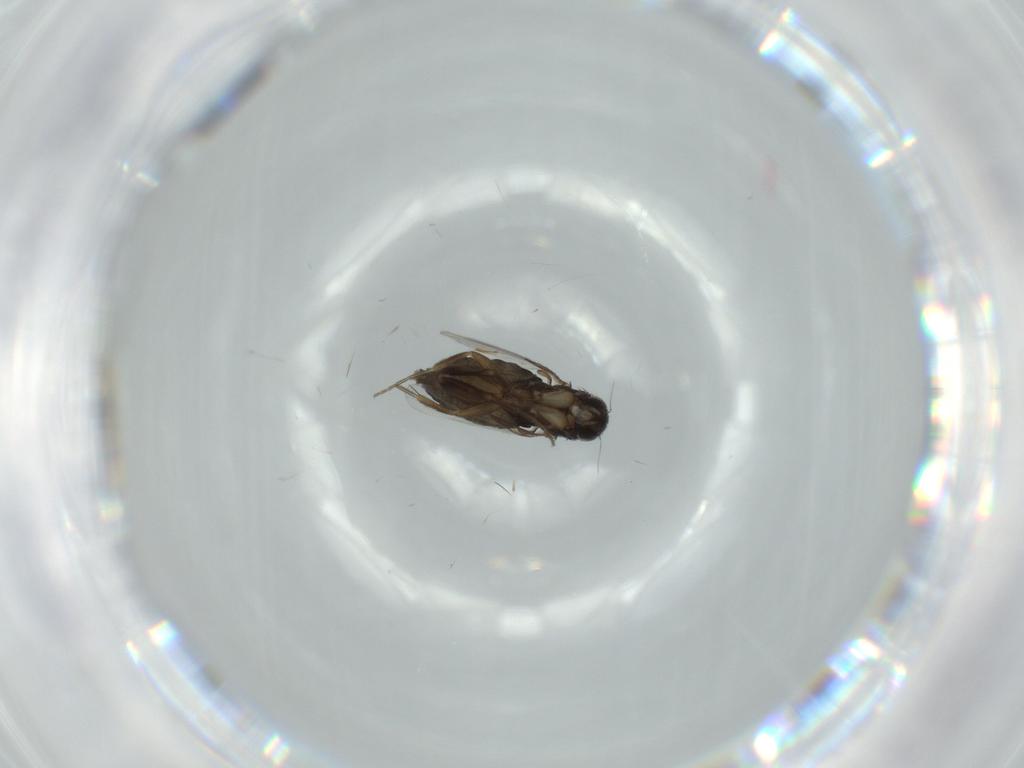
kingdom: Animalia
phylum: Arthropoda
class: Insecta
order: Diptera
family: Phoridae
